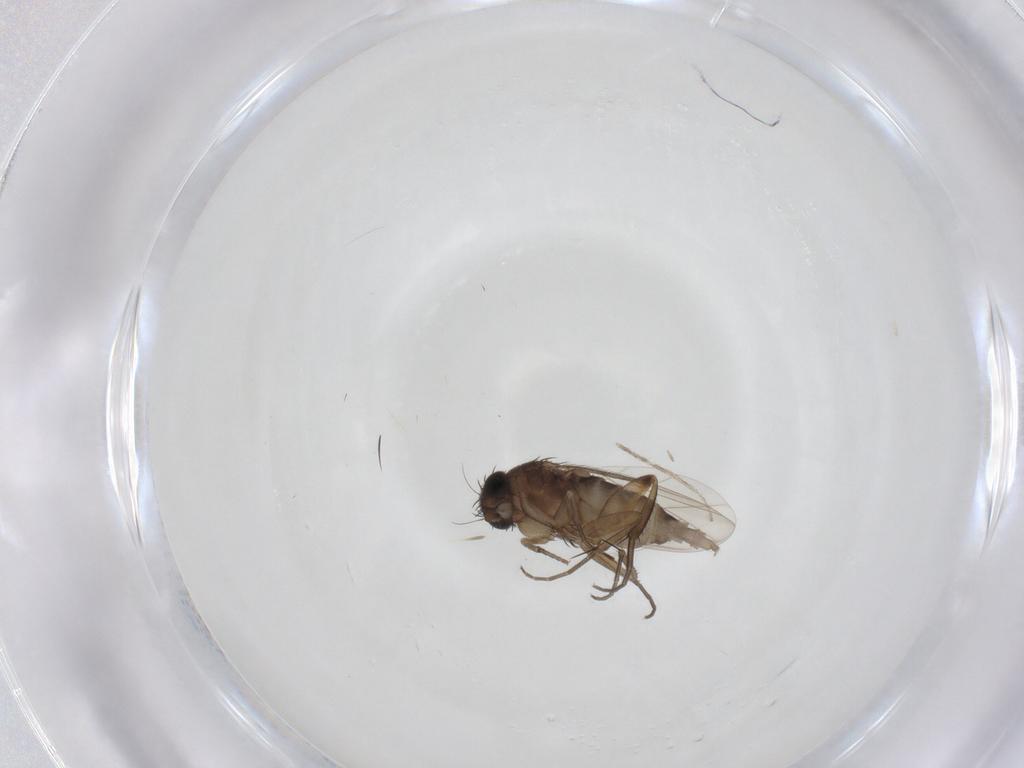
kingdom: Animalia
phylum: Arthropoda
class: Insecta
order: Diptera
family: Phoridae
